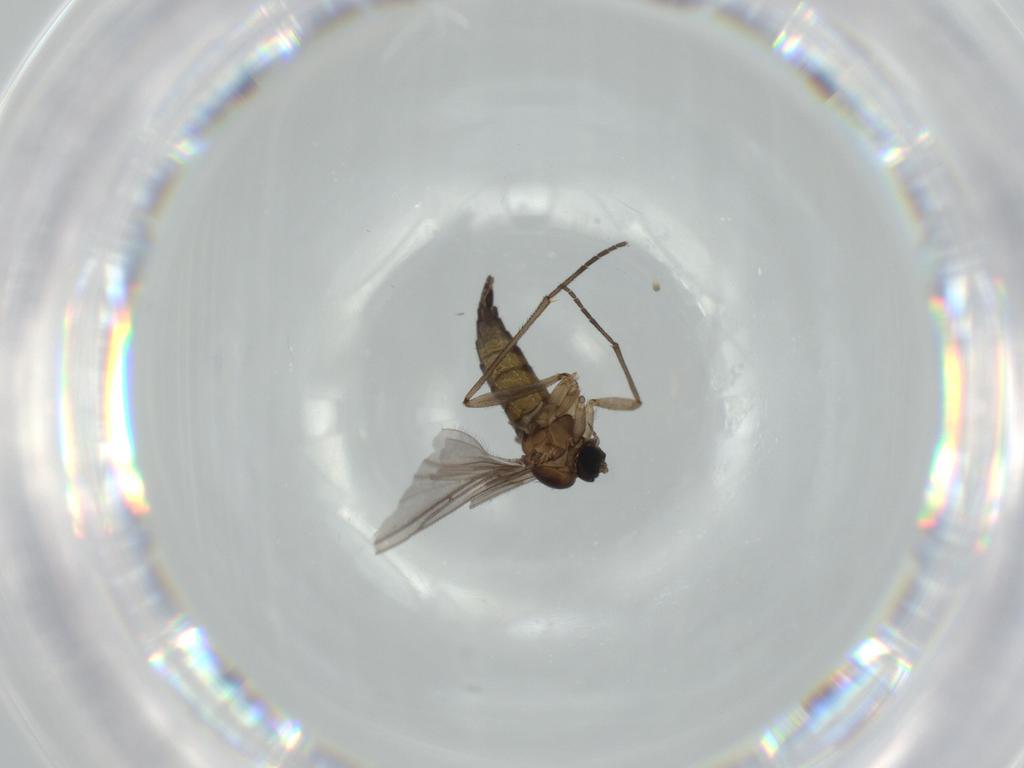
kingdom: Animalia
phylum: Arthropoda
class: Insecta
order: Diptera
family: Sciaridae
